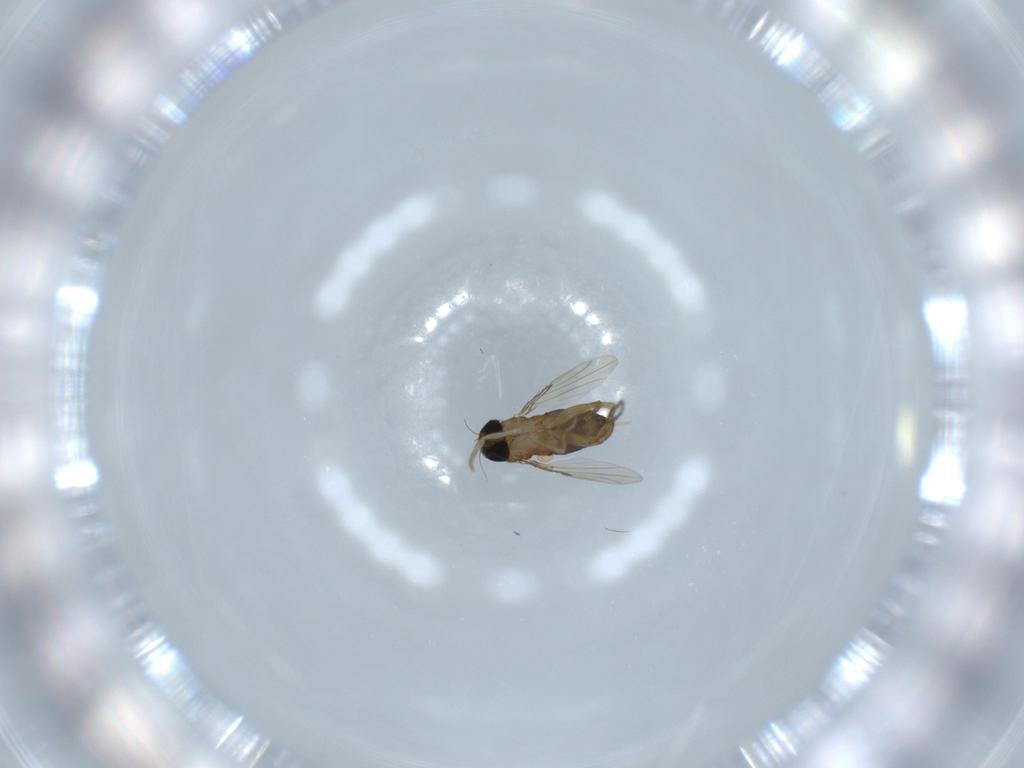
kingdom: Animalia
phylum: Arthropoda
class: Insecta
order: Diptera
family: Phoridae
